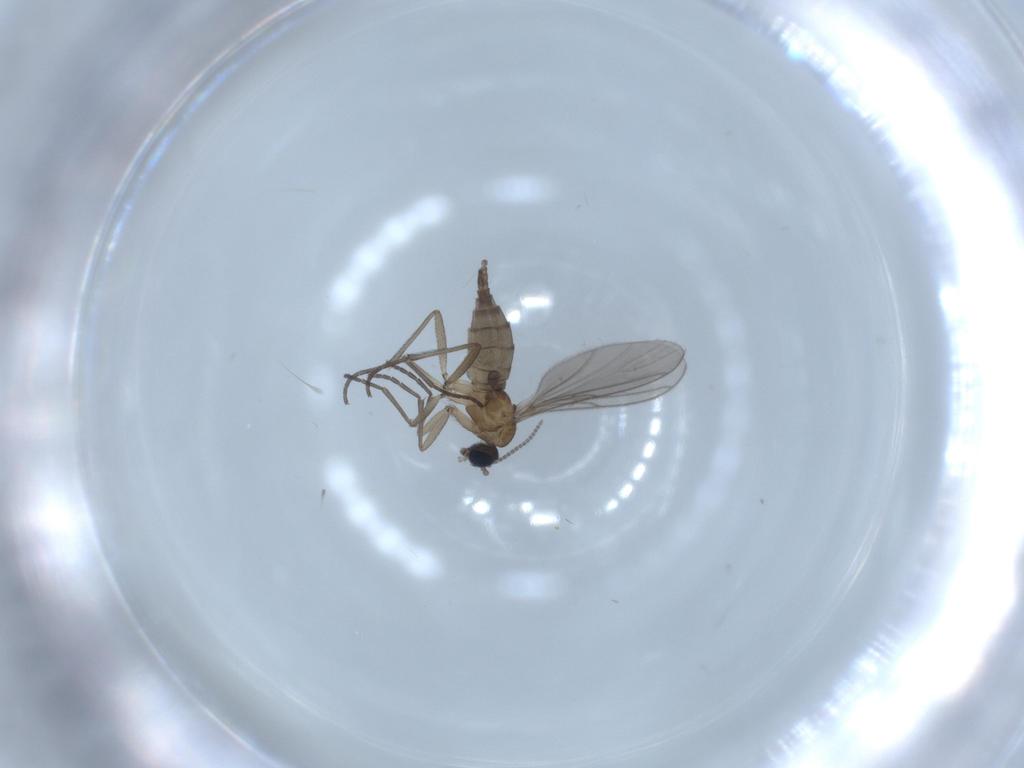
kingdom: Animalia
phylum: Arthropoda
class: Insecta
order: Diptera
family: Sciaridae
